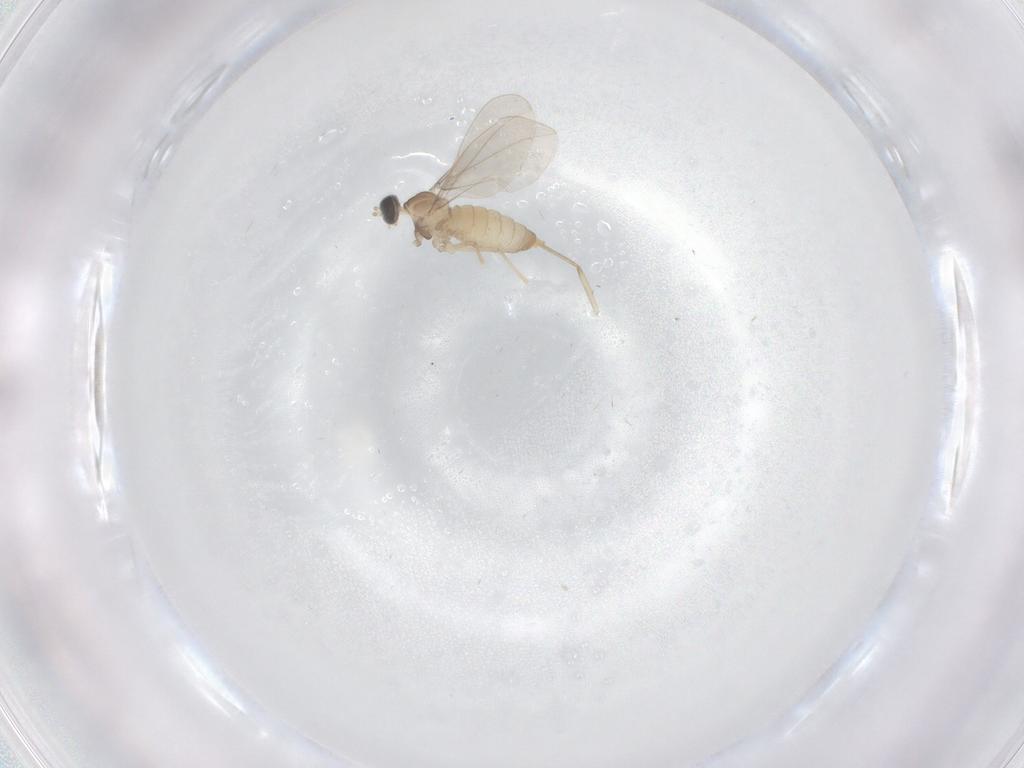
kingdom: Animalia
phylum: Arthropoda
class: Insecta
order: Diptera
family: Cecidomyiidae
